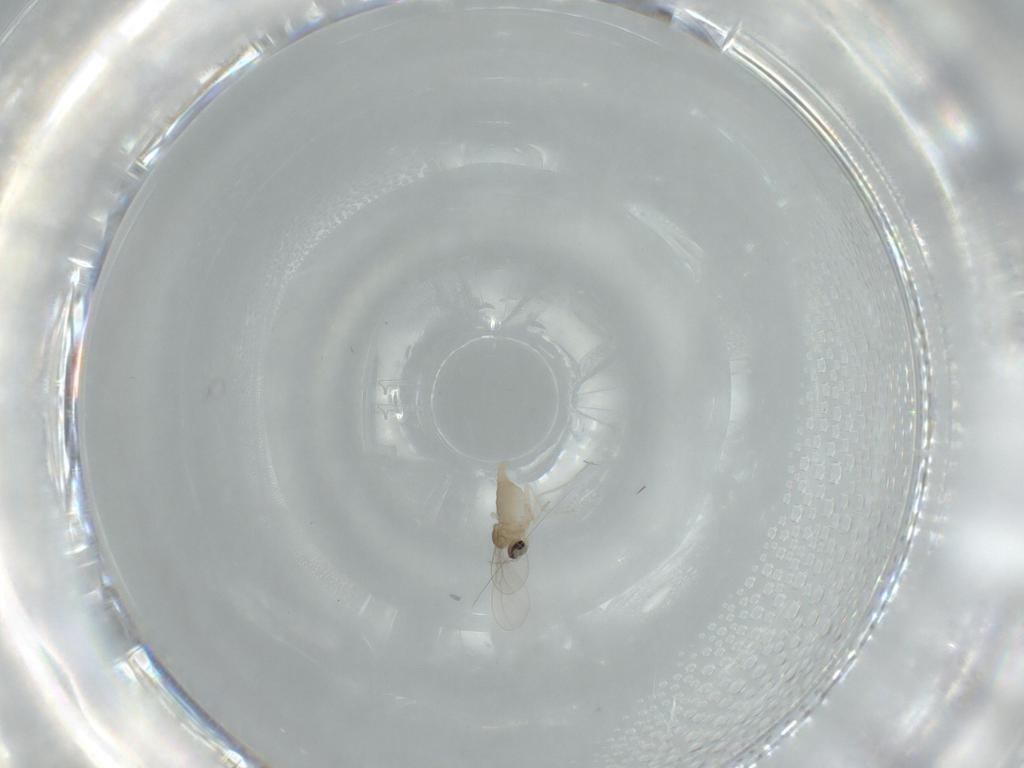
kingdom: Animalia
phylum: Arthropoda
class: Insecta
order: Diptera
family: Cecidomyiidae
